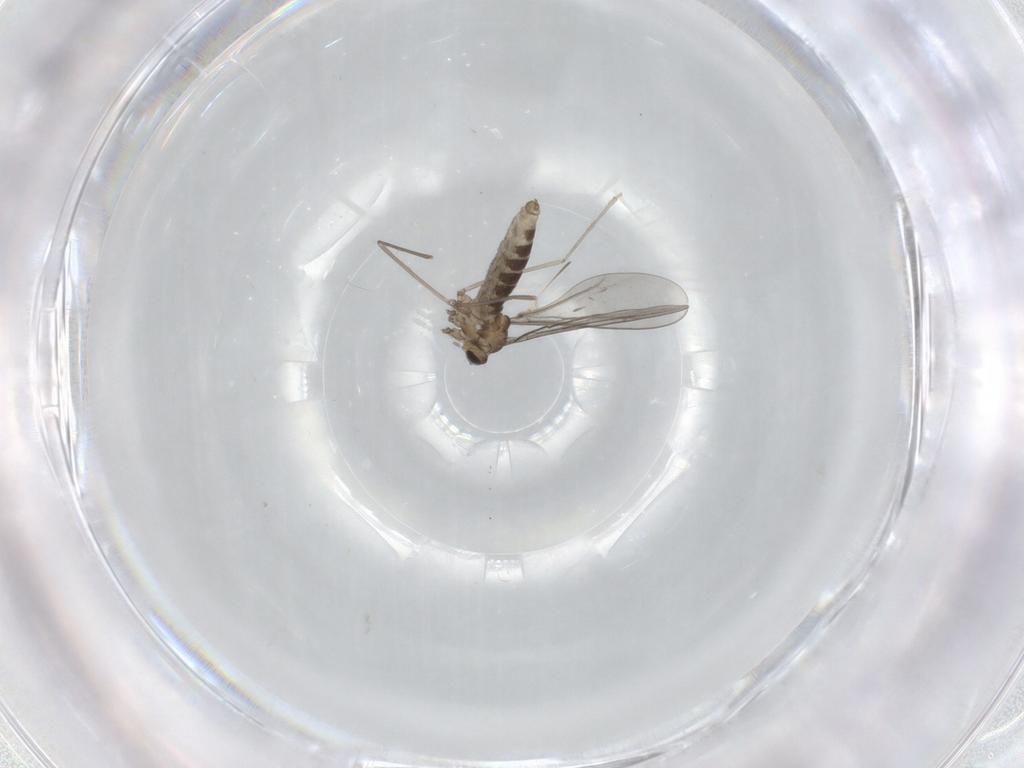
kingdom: Animalia
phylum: Arthropoda
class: Insecta
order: Diptera
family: Cecidomyiidae
